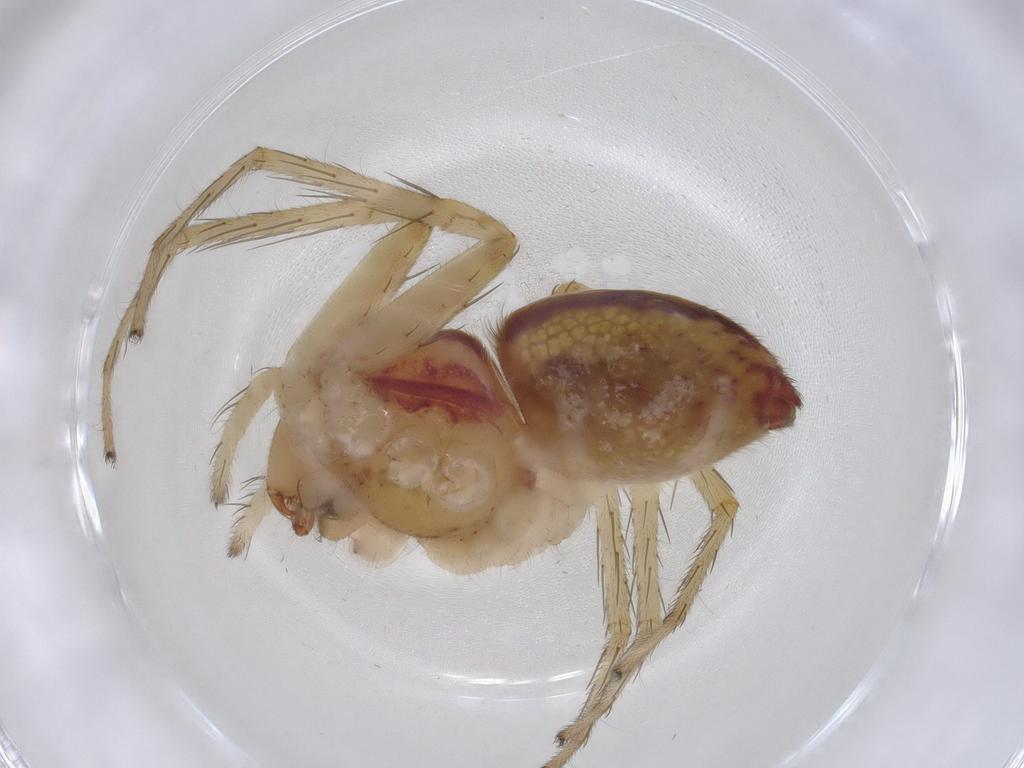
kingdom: Animalia
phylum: Arthropoda
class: Arachnida
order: Araneae
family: Pisauridae
